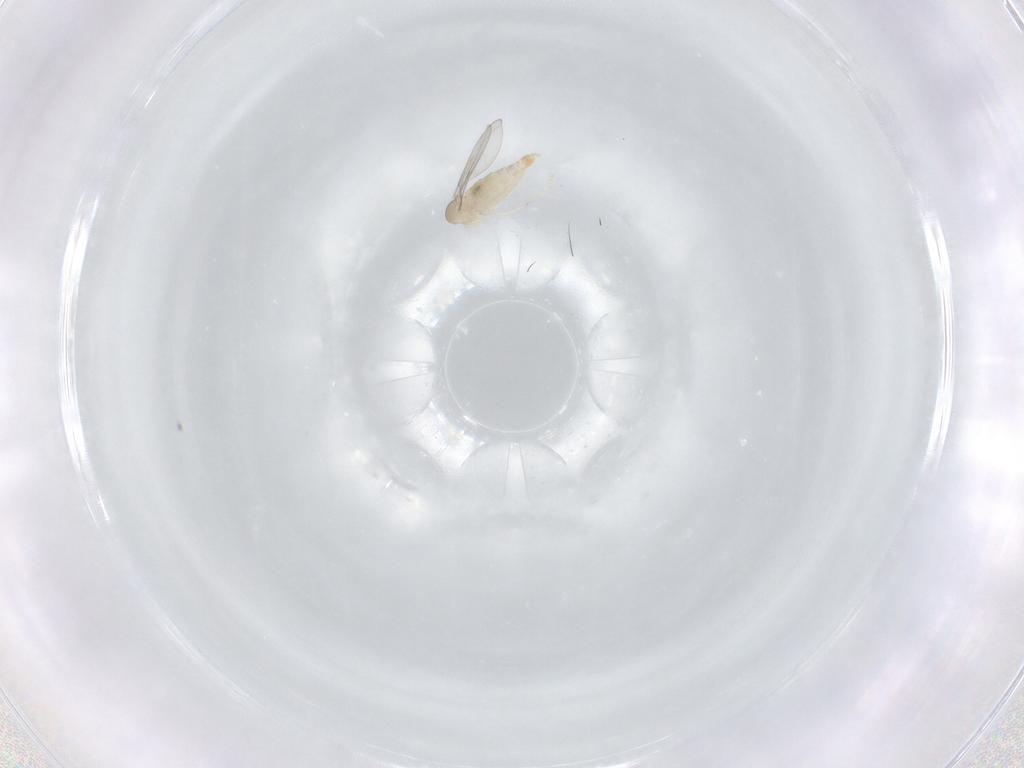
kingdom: Animalia
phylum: Arthropoda
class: Insecta
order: Diptera
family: Cecidomyiidae
